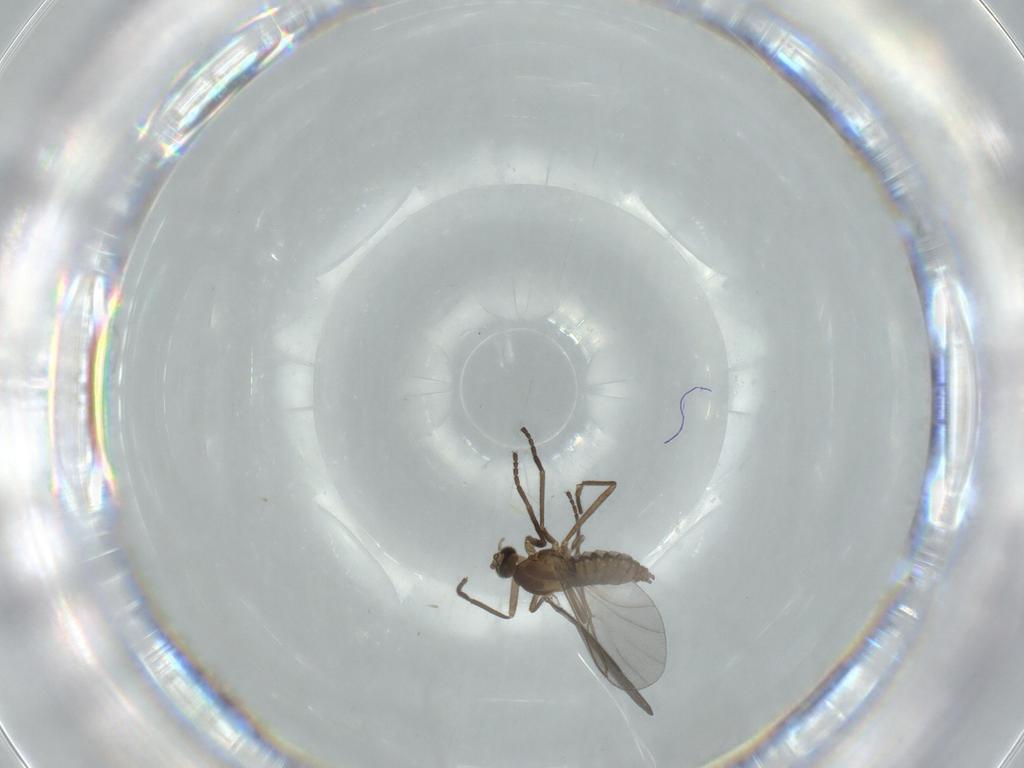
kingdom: Animalia
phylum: Arthropoda
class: Insecta
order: Diptera
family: Cecidomyiidae
